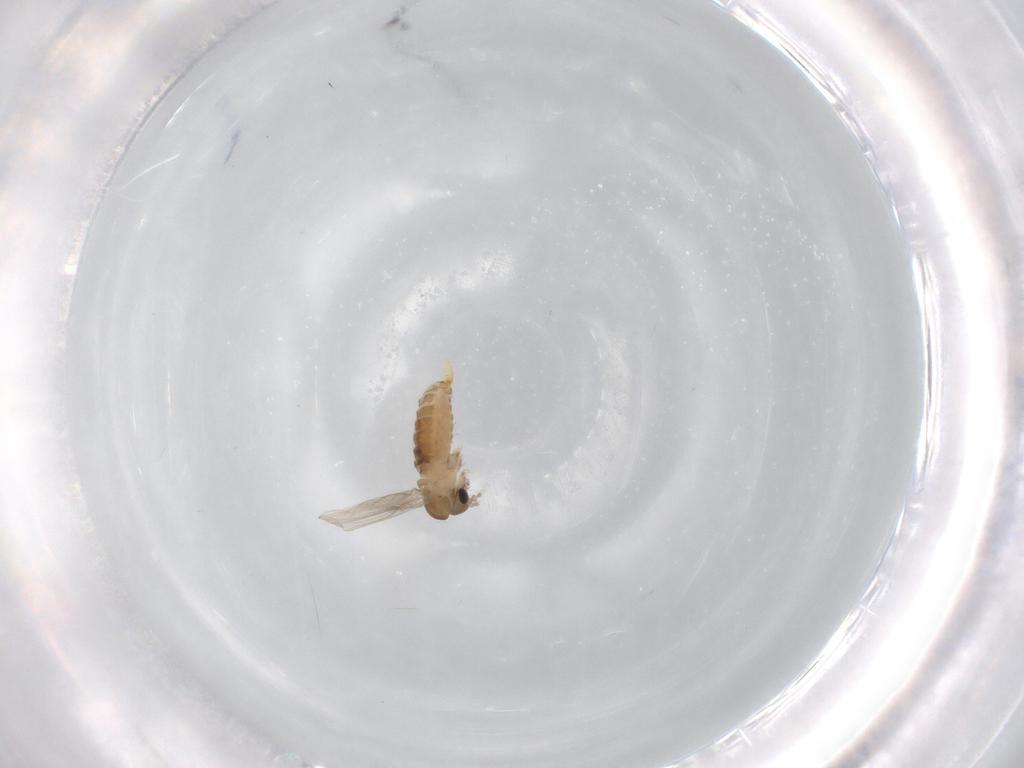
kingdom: Animalia
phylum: Arthropoda
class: Insecta
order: Diptera
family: Psychodidae
